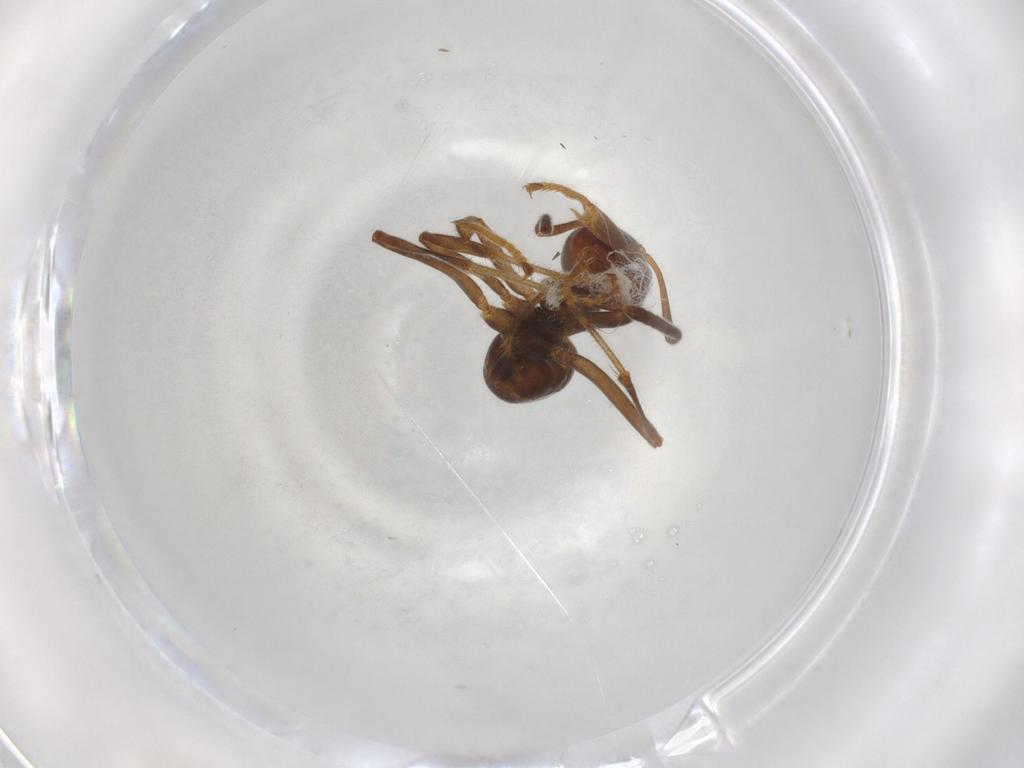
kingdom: Animalia
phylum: Arthropoda
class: Insecta
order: Hymenoptera
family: Formicidae
